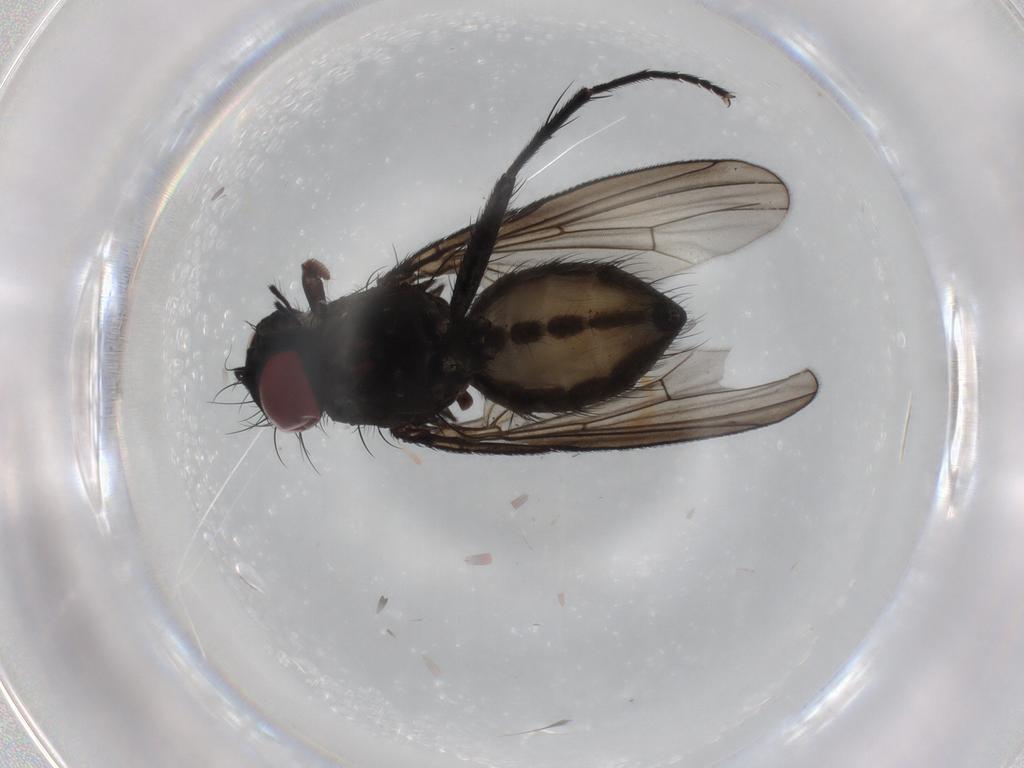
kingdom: Animalia
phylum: Arthropoda
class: Insecta
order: Diptera
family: Muscidae
